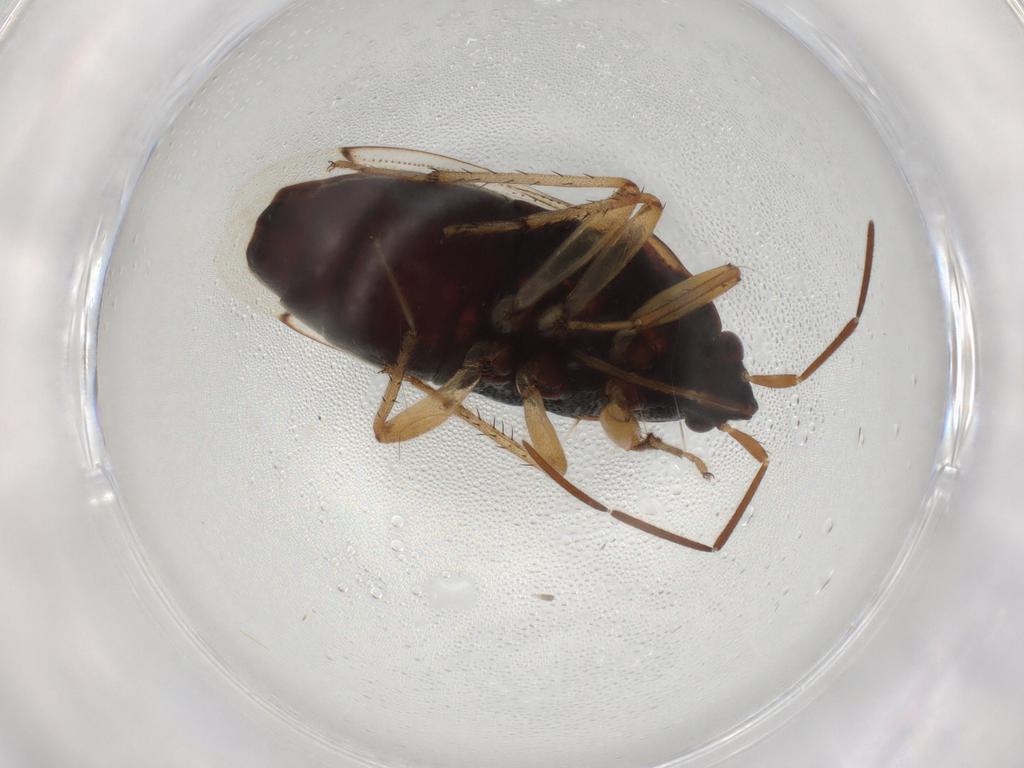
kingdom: Animalia
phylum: Arthropoda
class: Insecta
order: Hemiptera
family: Rhyparochromidae
